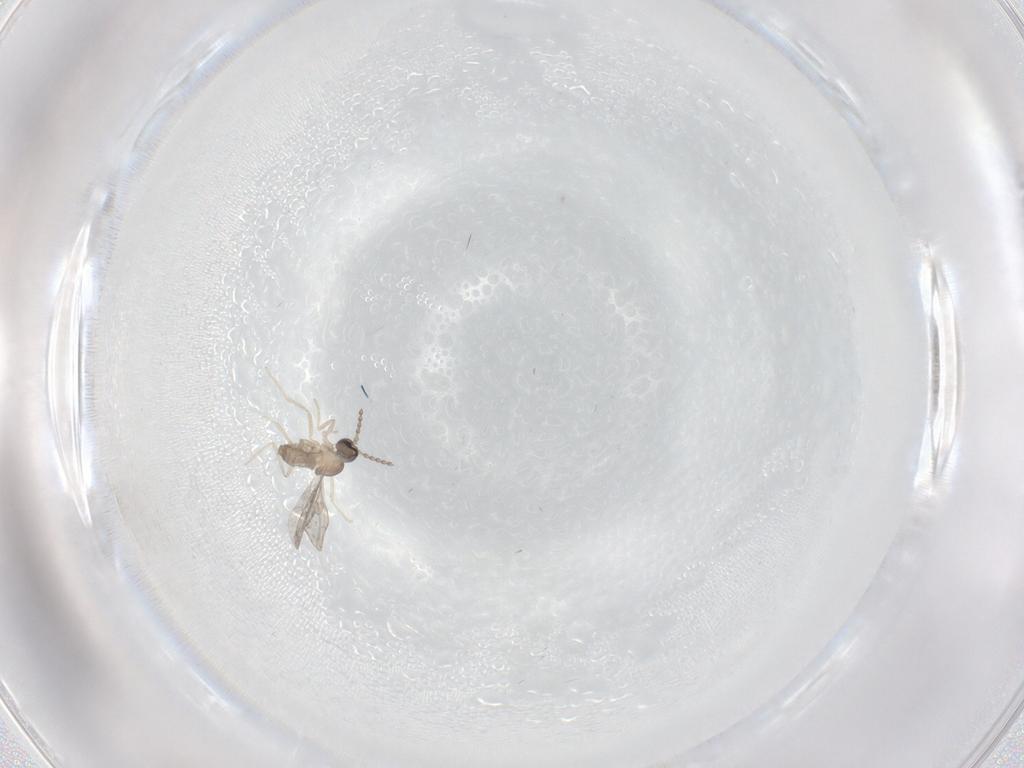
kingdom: Animalia
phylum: Arthropoda
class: Insecta
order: Diptera
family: Cecidomyiidae
